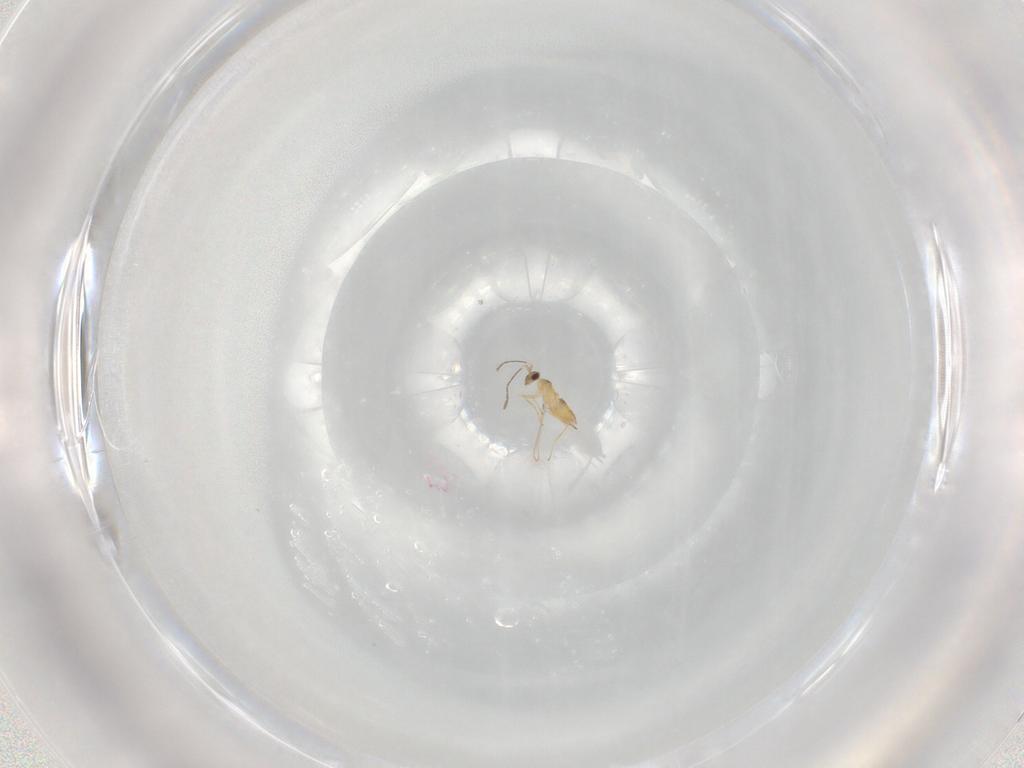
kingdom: Animalia
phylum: Arthropoda
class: Insecta
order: Hymenoptera
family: Mymaridae
